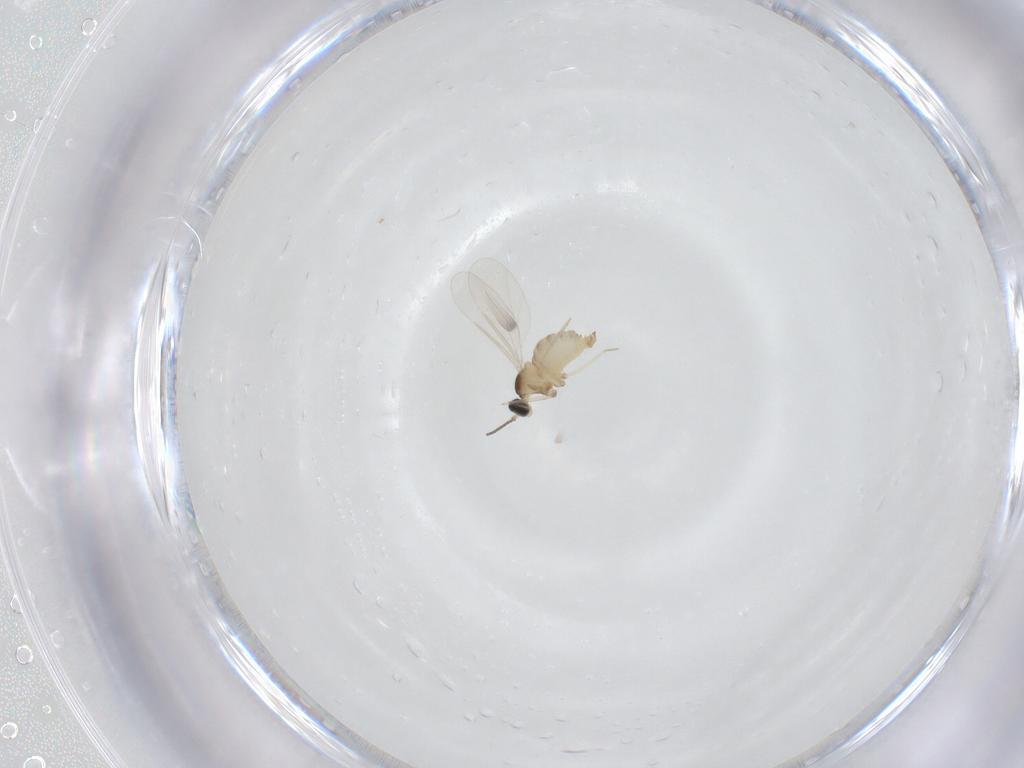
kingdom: Animalia
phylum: Arthropoda
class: Insecta
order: Diptera
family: Cecidomyiidae
